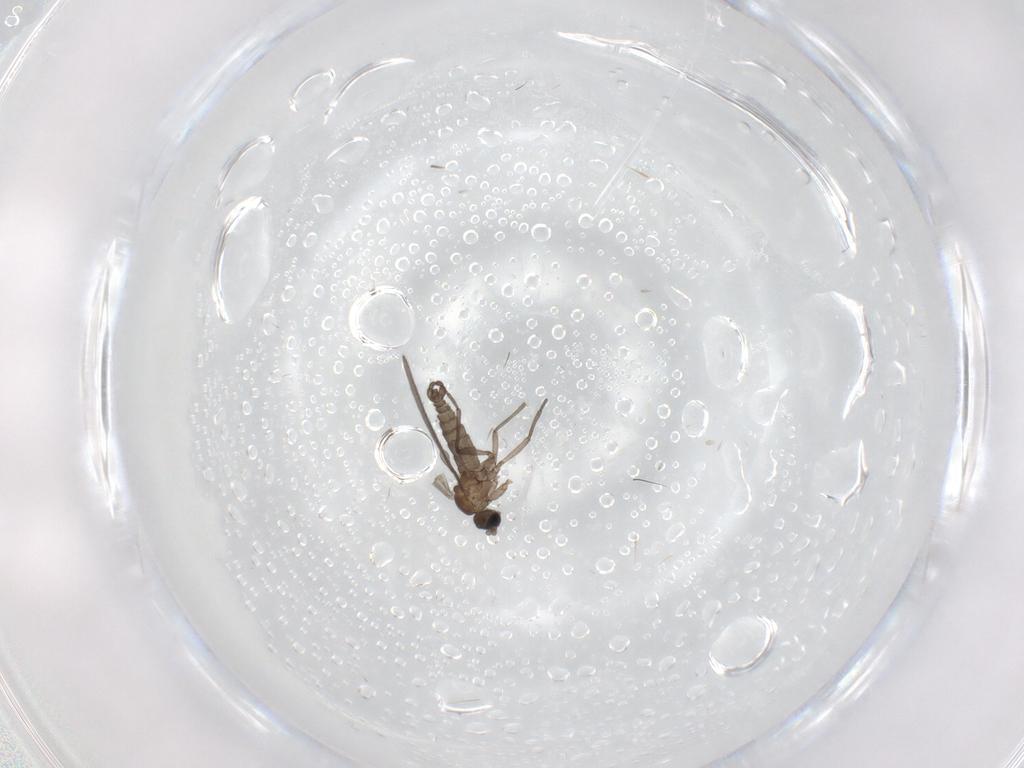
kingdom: Animalia
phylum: Arthropoda
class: Insecta
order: Diptera
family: Sciaridae
